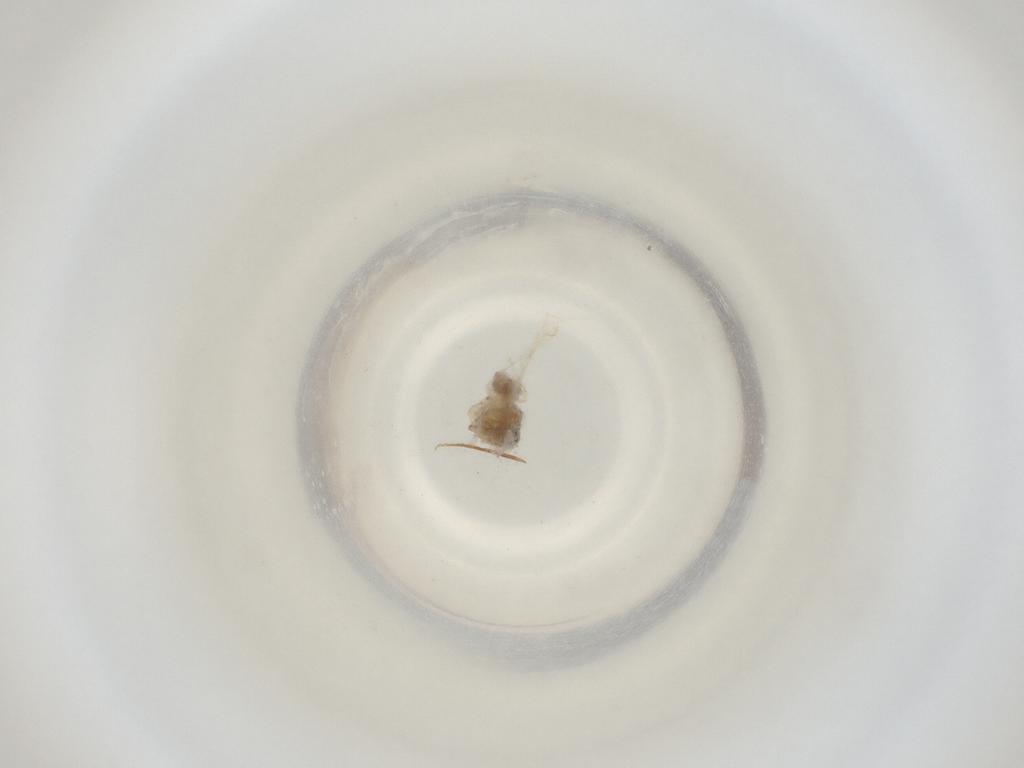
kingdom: Animalia
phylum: Arthropoda
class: Insecta
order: Diptera
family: Cecidomyiidae
